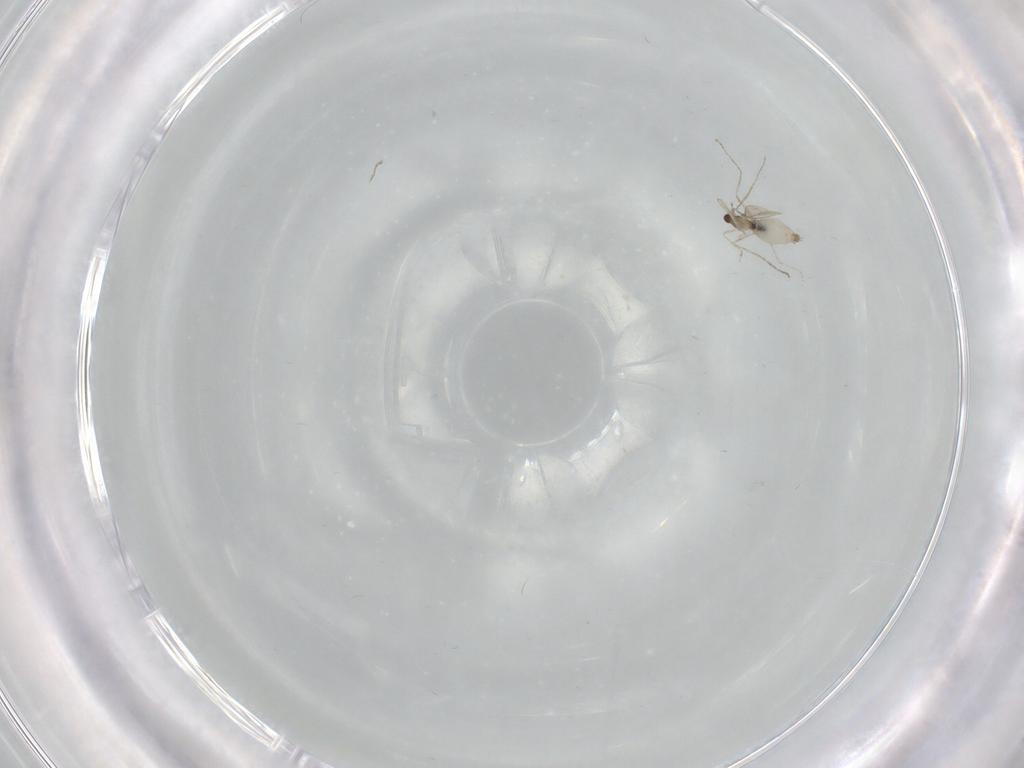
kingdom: Animalia
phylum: Arthropoda
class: Insecta
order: Diptera
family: Cecidomyiidae
